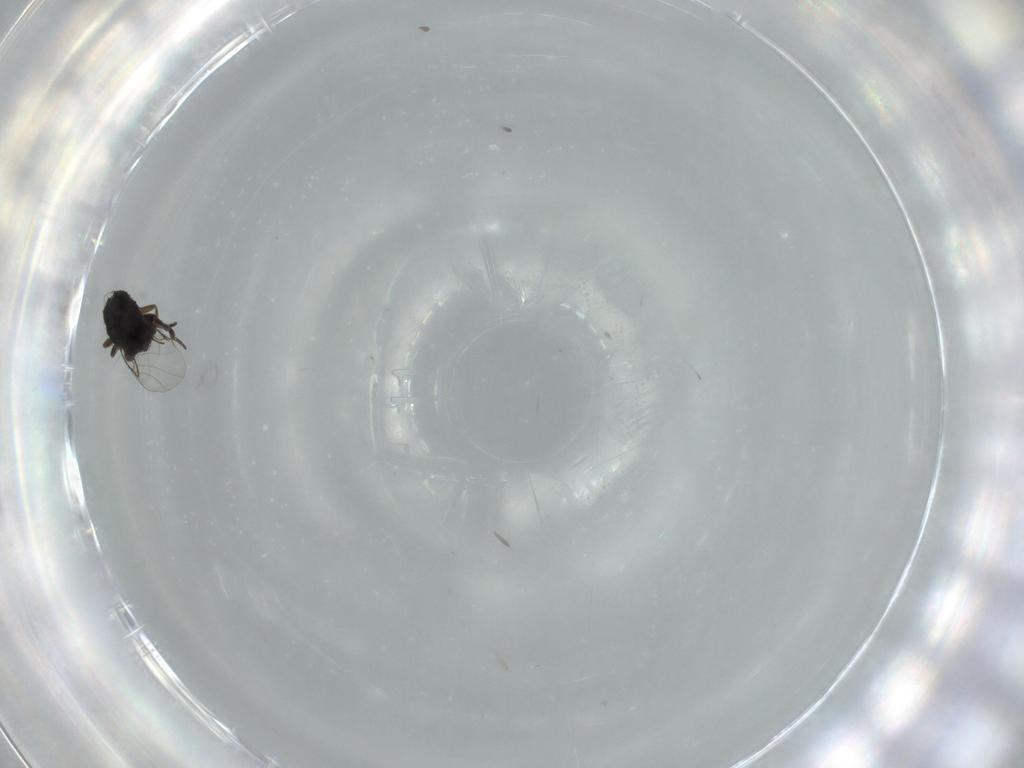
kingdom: Animalia
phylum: Arthropoda
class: Insecta
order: Diptera
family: Phoridae
